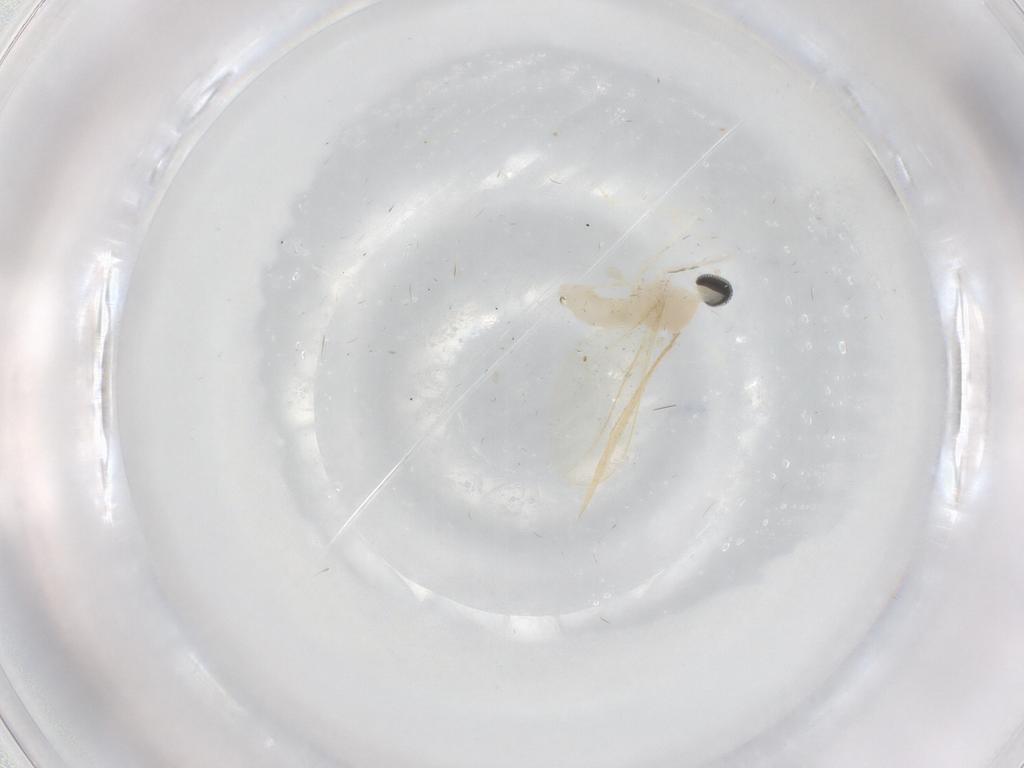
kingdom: Animalia
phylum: Arthropoda
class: Insecta
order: Diptera
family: Cecidomyiidae
